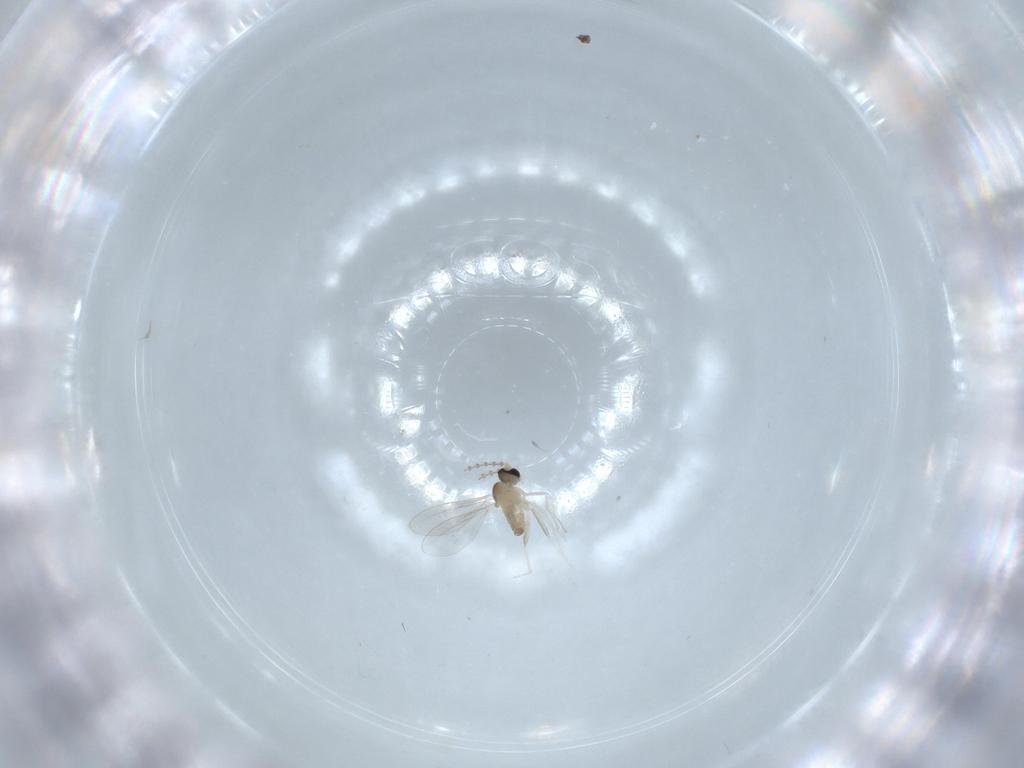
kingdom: Animalia
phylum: Arthropoda
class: Insecta
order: Diptera
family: Cecidomyiidae
